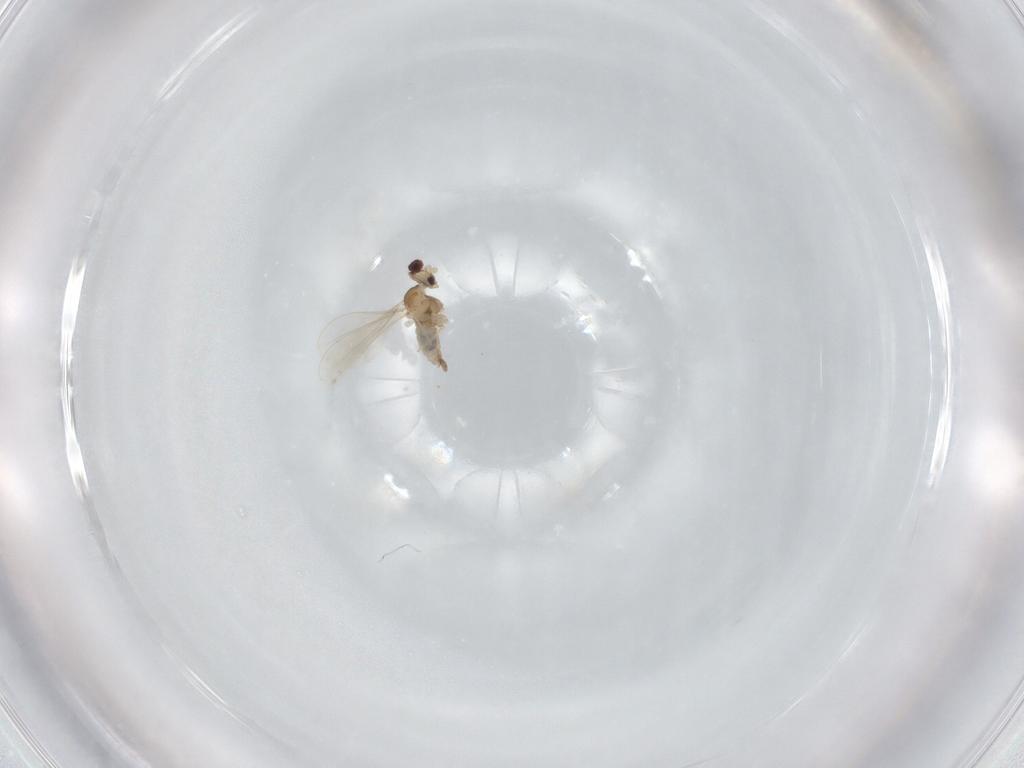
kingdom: Animalia
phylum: Arthropoda
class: Insecta
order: Diptera
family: Cecidomyiidae
